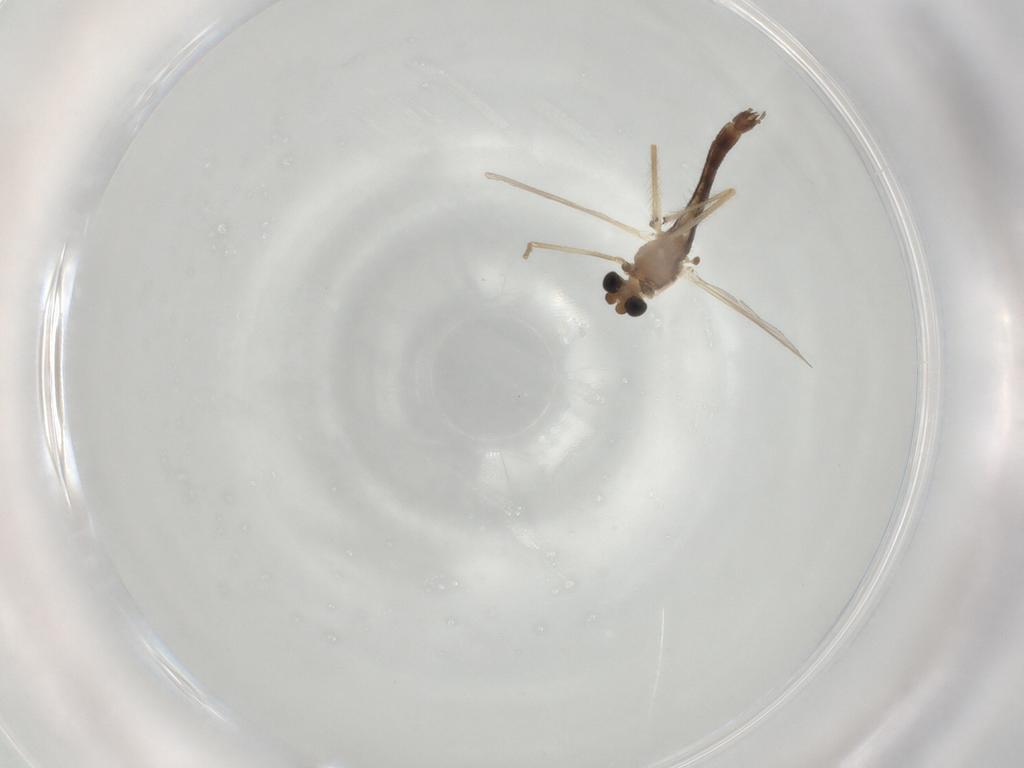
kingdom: Animalia
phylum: Arthropoda
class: Insecta
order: Diptera
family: Chironomidae
